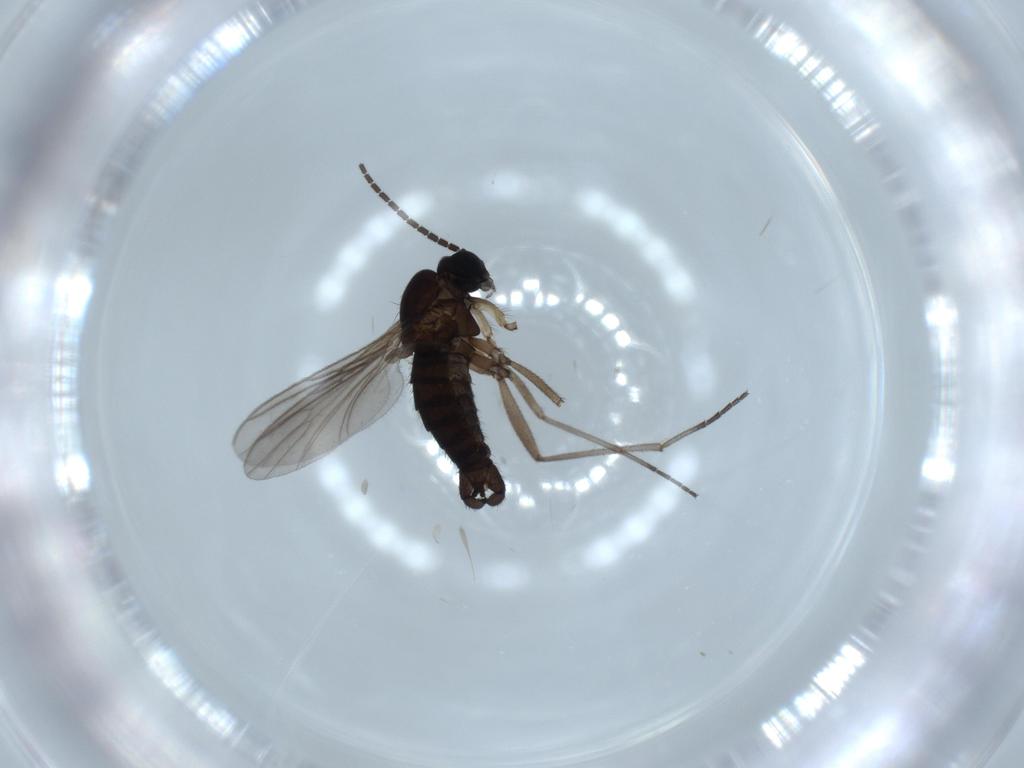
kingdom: Animalia
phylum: Arthropoda
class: Insecta
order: Diptera
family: Sciaridae
